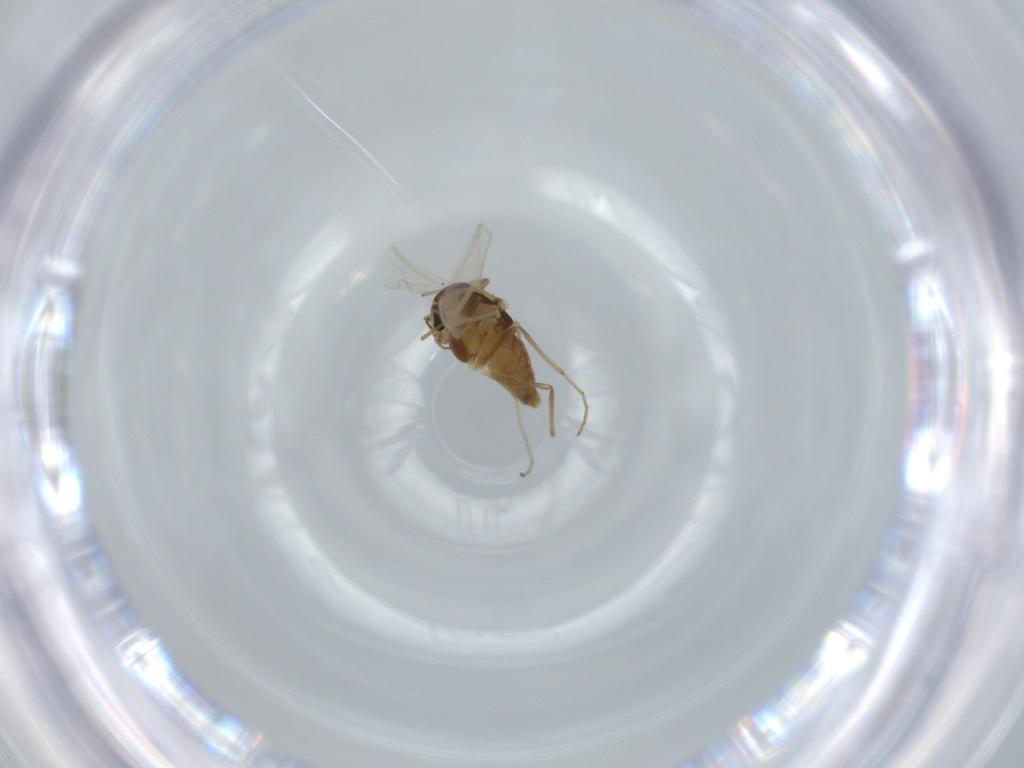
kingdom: Animalia
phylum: Arthropoda
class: Insecta
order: Diptera
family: Chironomidae
